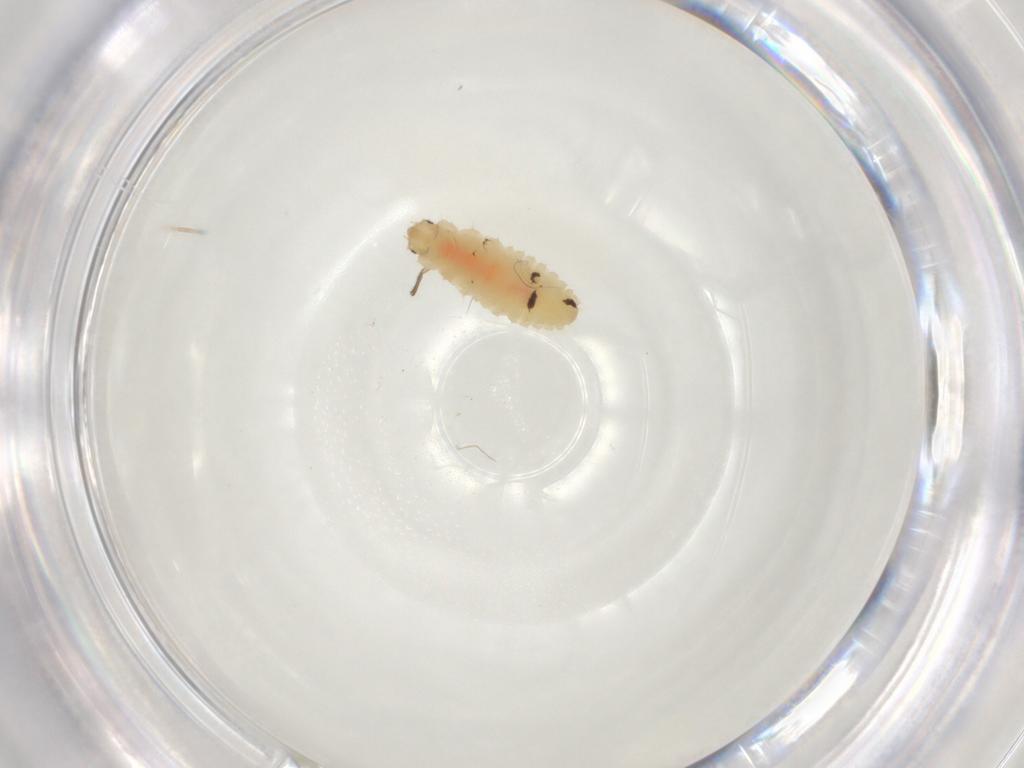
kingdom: Animalia
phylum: Arthropoda
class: Insecta
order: Coleoptera
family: Coccinellidae
